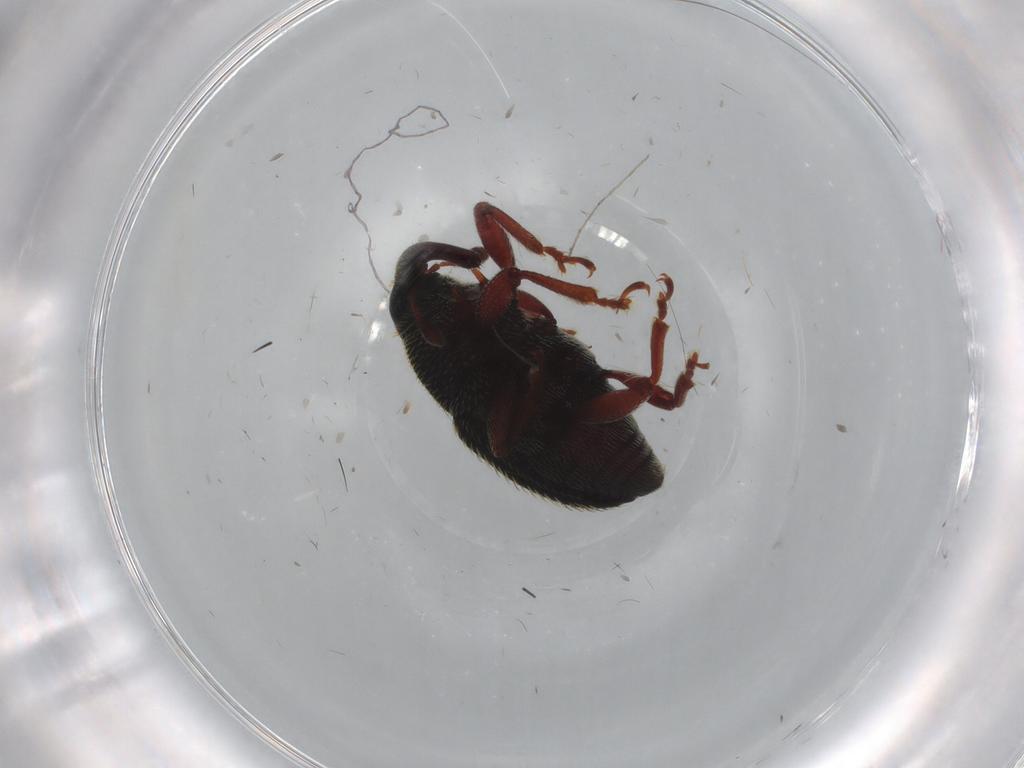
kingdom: Animalia
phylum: Arthropoda
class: Insecta
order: Coleoptera
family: Curculionidae
